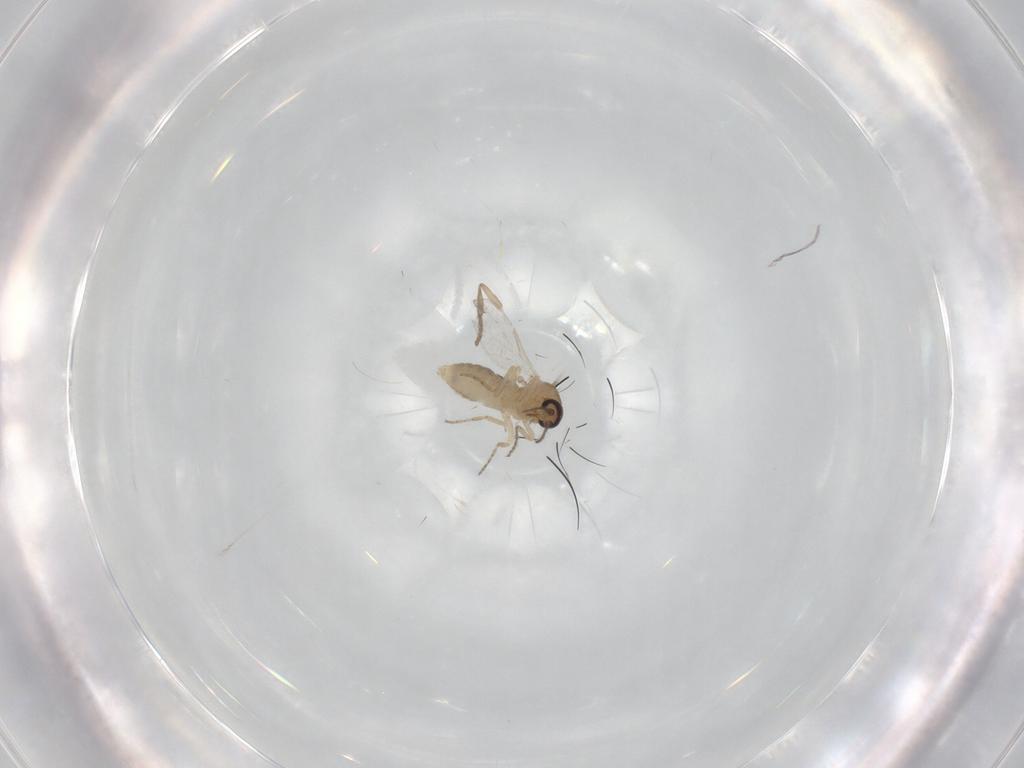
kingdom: Animalia
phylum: Arthropoda
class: Insecta
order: Diptera
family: Ceratopogonidae
